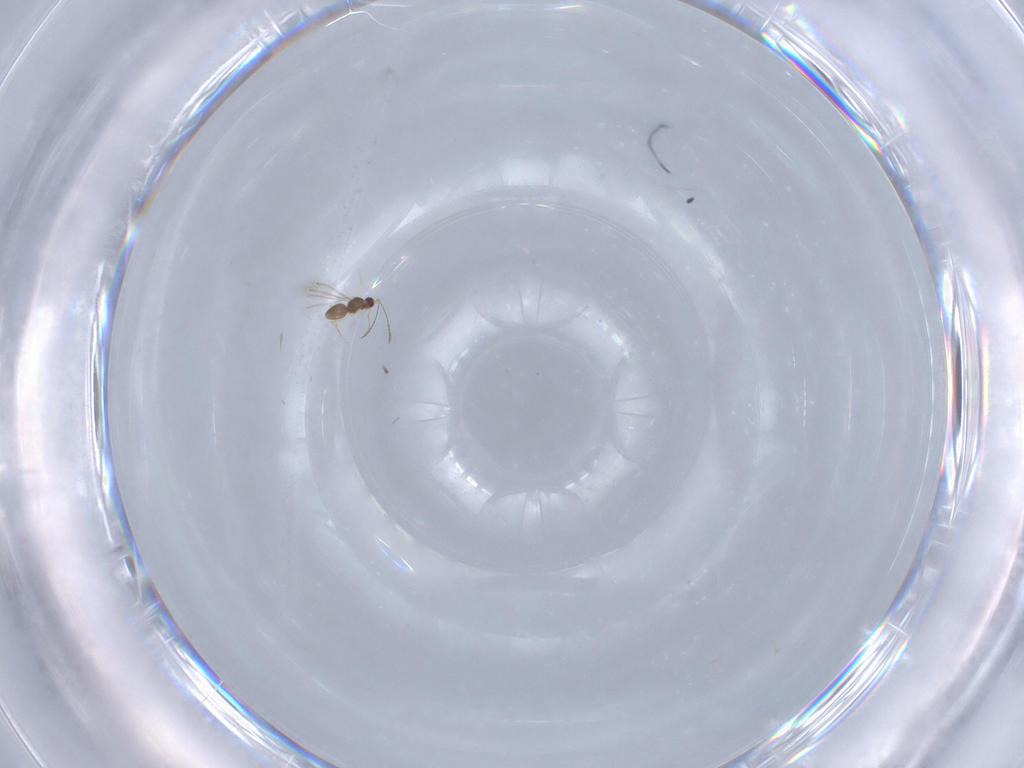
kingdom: Animalia
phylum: Arthropoda
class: Insecta
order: Hymenoptera
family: Mymaridae
